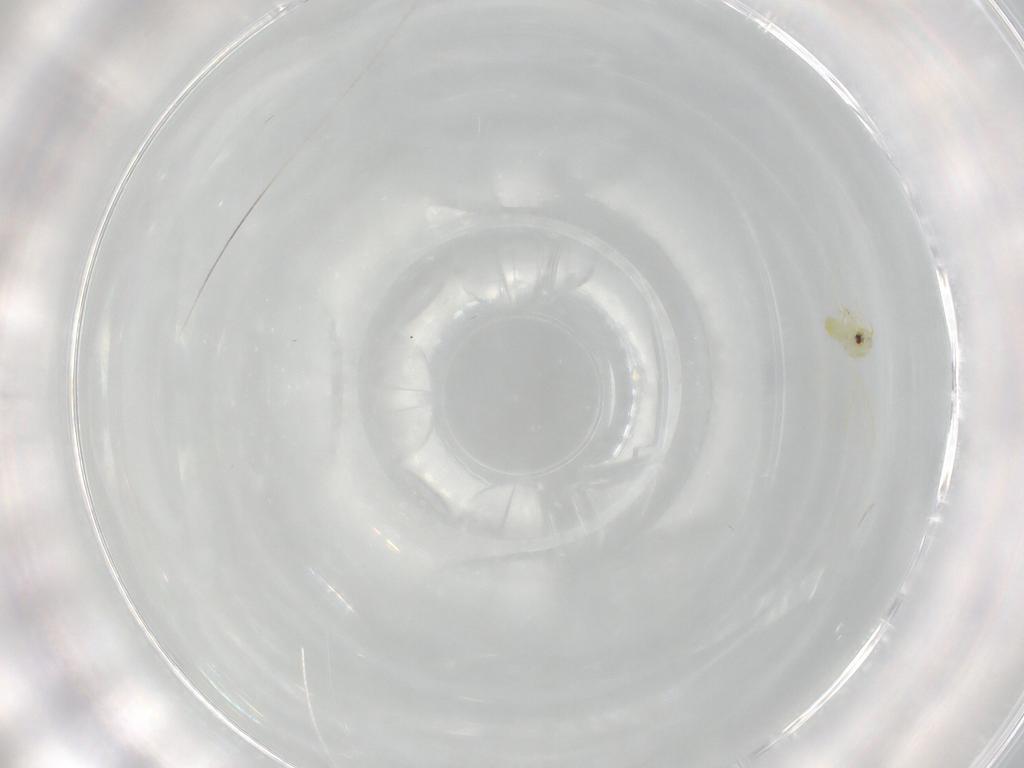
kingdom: Animalia
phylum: Arthropoda
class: Insecta
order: Hemiptera
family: Aleyrodidae
